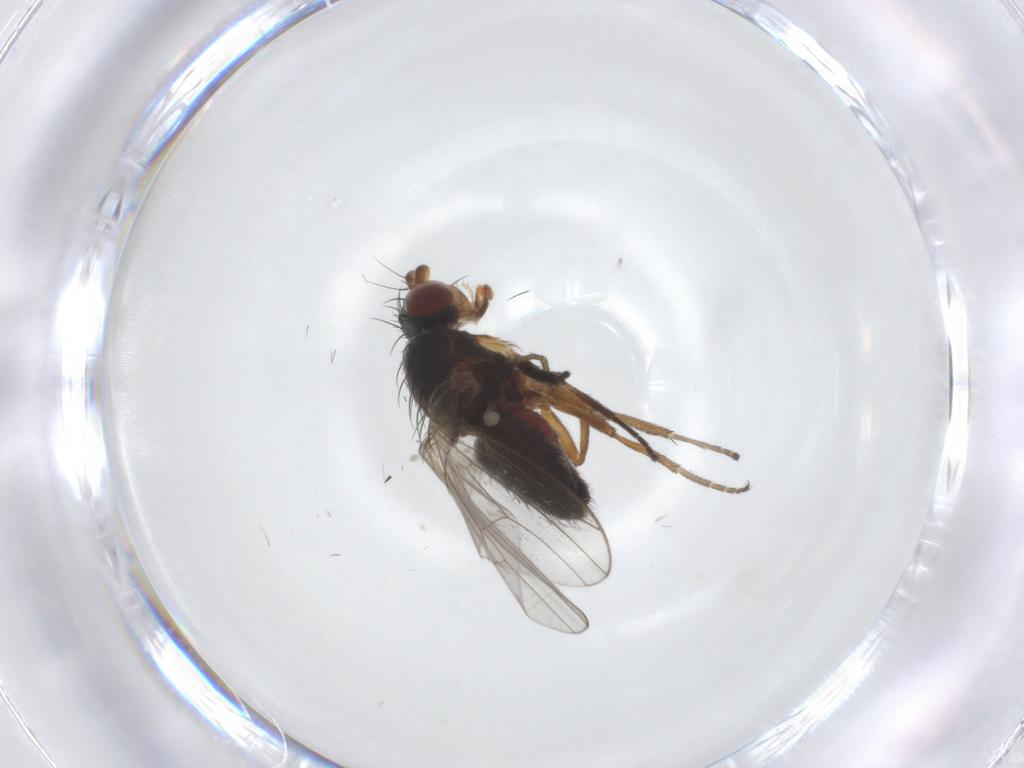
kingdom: Animalia
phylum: Arthropoda
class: Insecta
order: Diptera
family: Heleomyzidae
